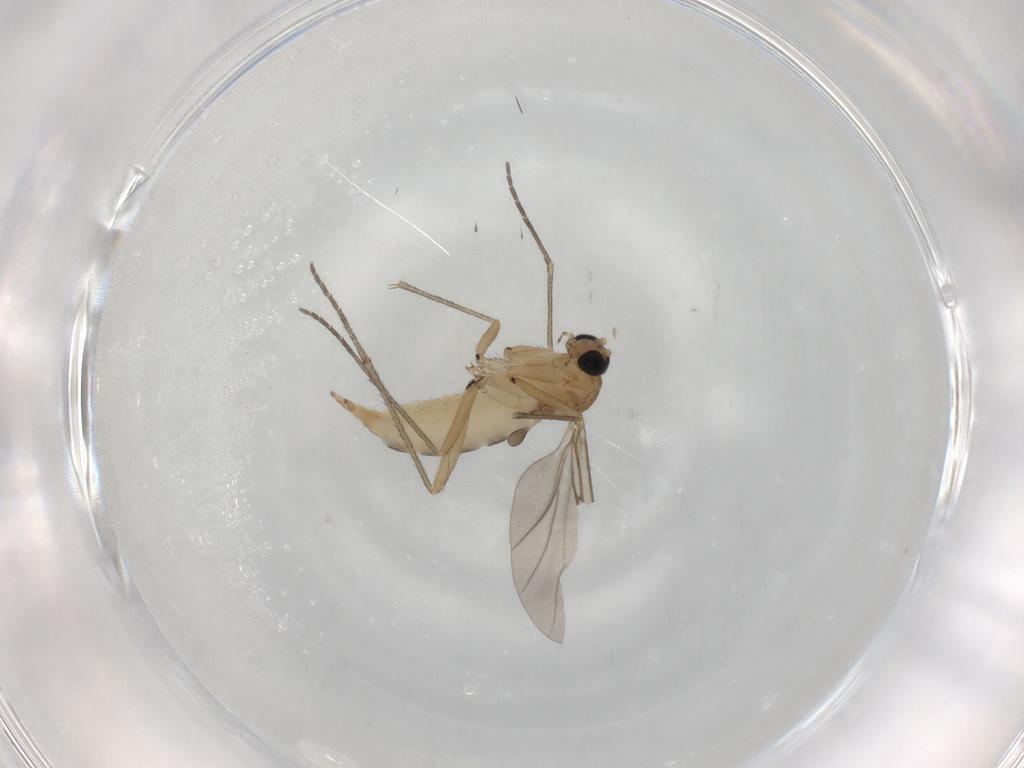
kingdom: Animalia
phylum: Arthropoda
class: Insecta
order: Diptera
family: Sciaridae
